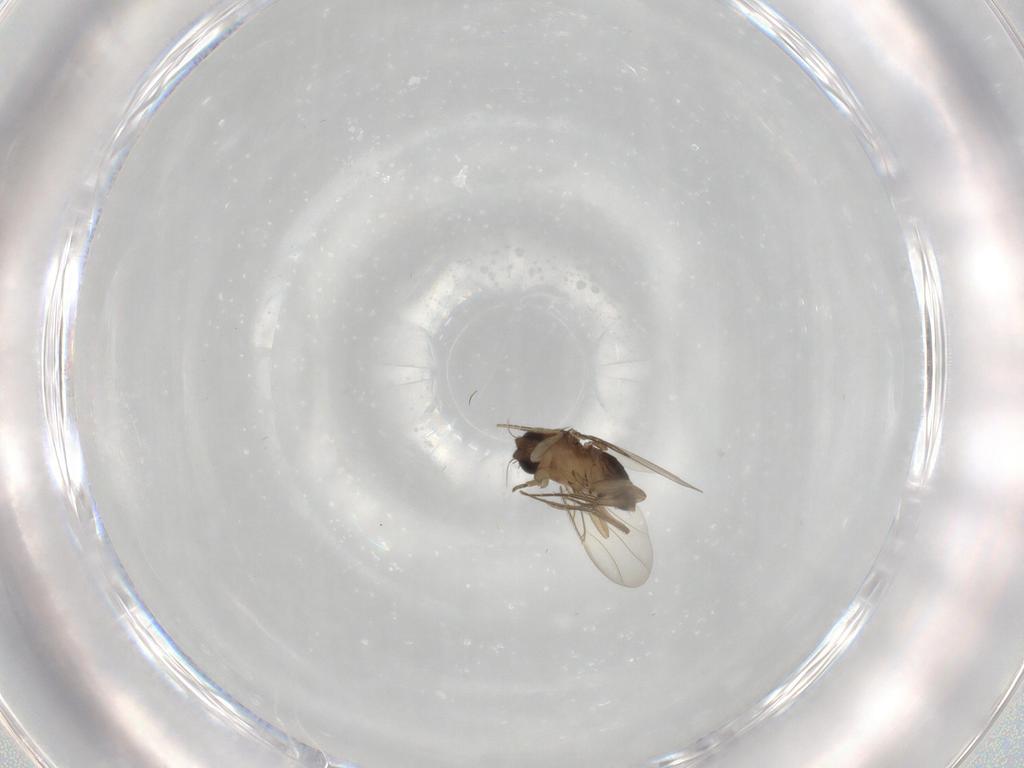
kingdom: Animalia
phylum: Arthropoda
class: Insecta
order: Diptera
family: Phoridae
